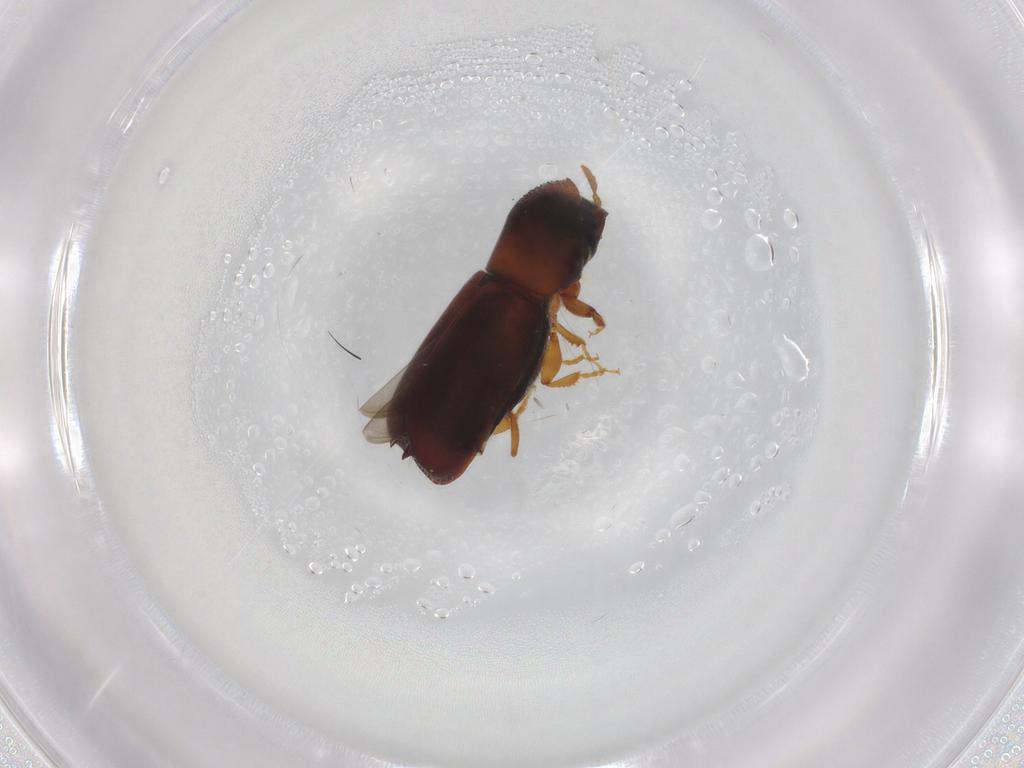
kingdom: Animalia
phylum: Arthropoda
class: Insecta
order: Coleoptera
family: Curculionidae
